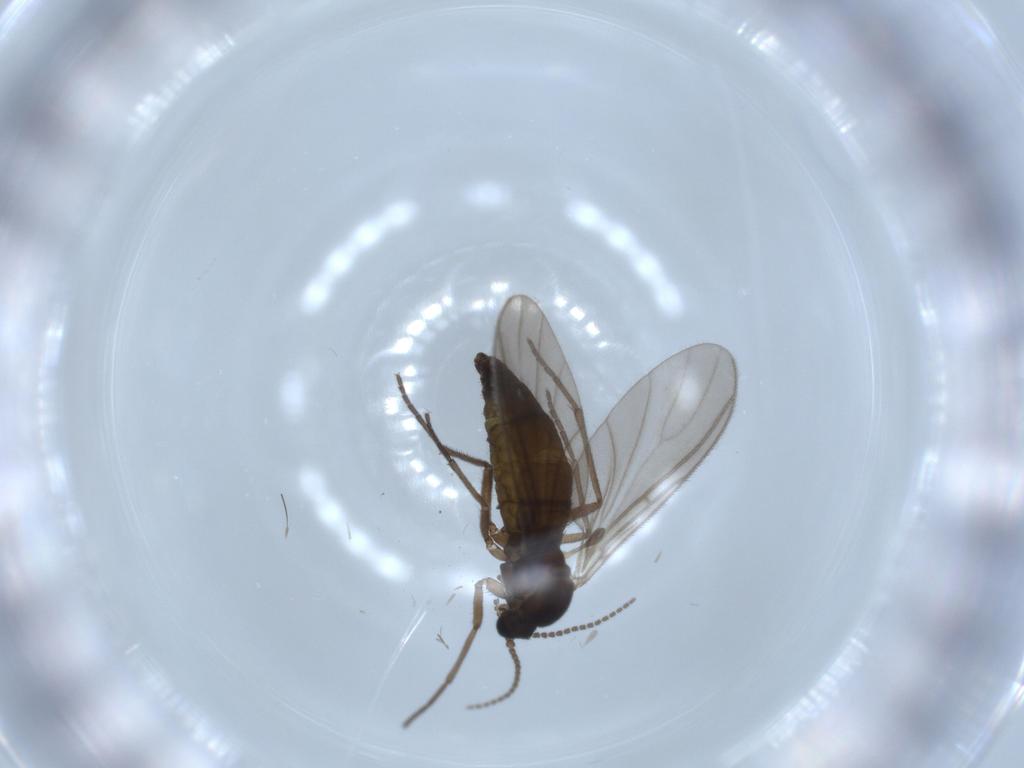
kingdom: Animalia
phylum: Arthropoda
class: Insecta
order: Diptera
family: Sciaridae
